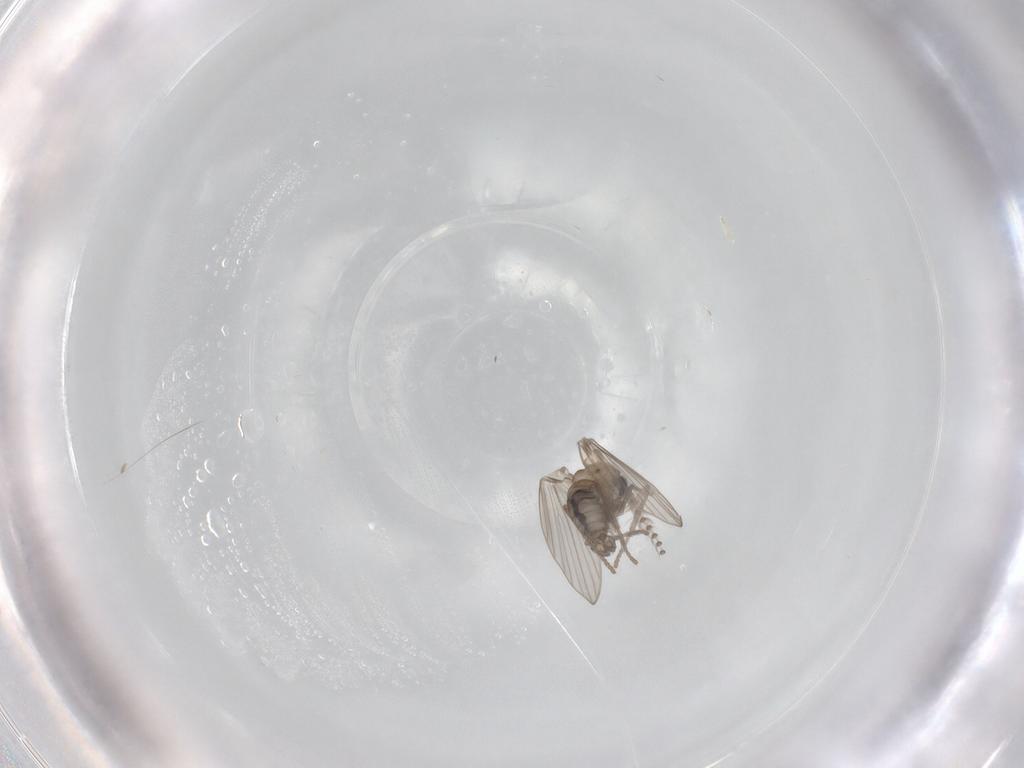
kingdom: Animalia
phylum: Arthropoda
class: Insecta
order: Diptera
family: Psychodidae
